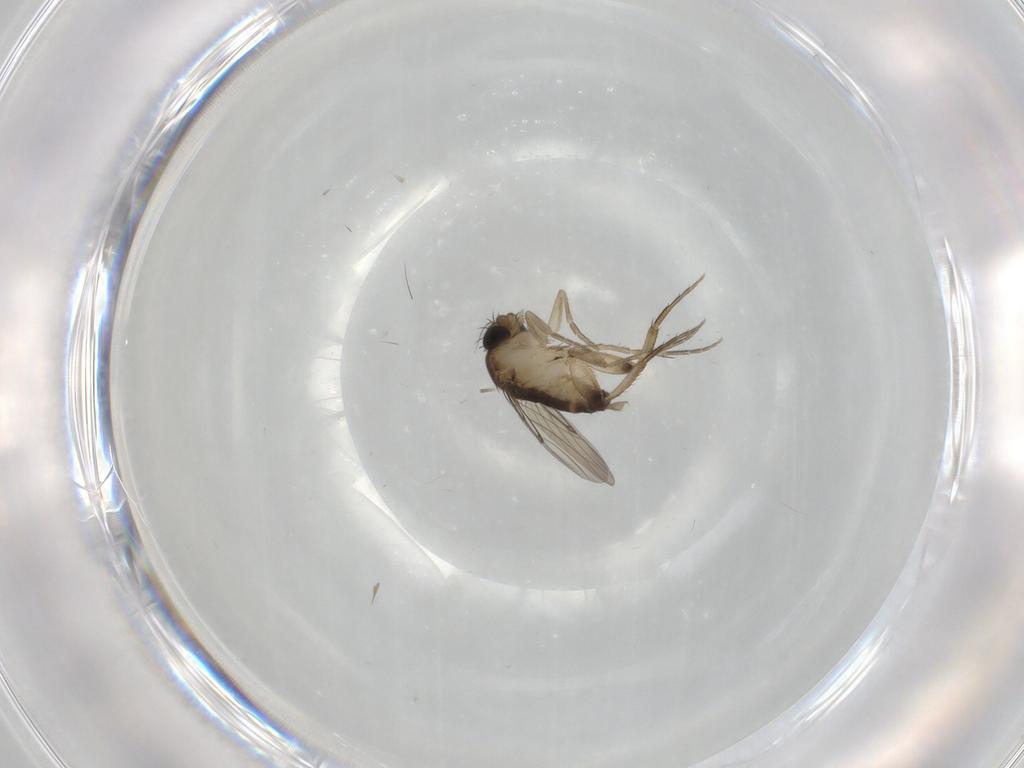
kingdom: Animalia
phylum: Arthropoda
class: Insecta
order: Diptera
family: Phoridae
